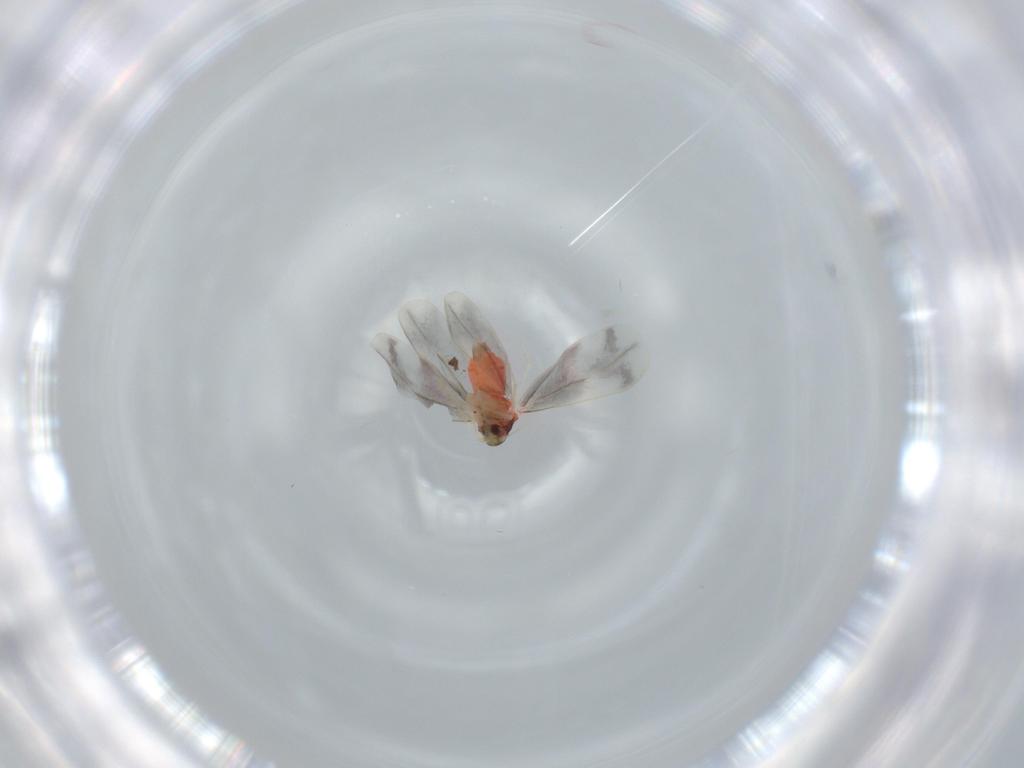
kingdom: Animalia
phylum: Arthropoda
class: Insecta
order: Hemiptera
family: Aleyrodidae
